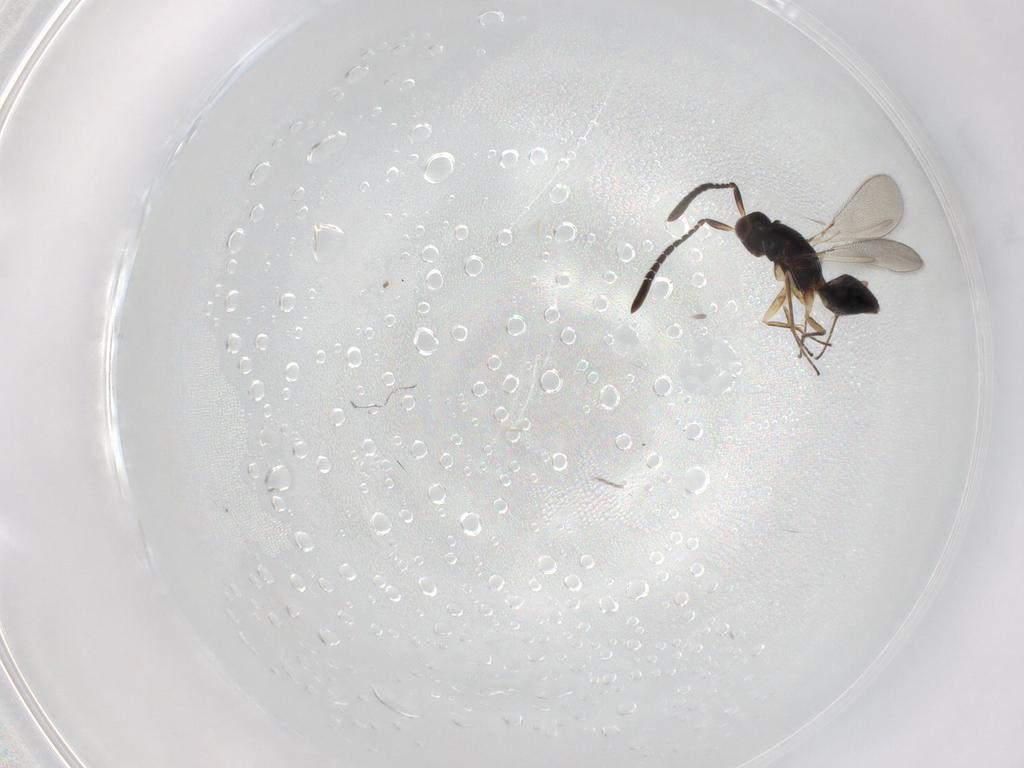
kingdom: Animalia
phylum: Arthropoda
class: Insecta
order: Hymenoptera
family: Mymaridae
